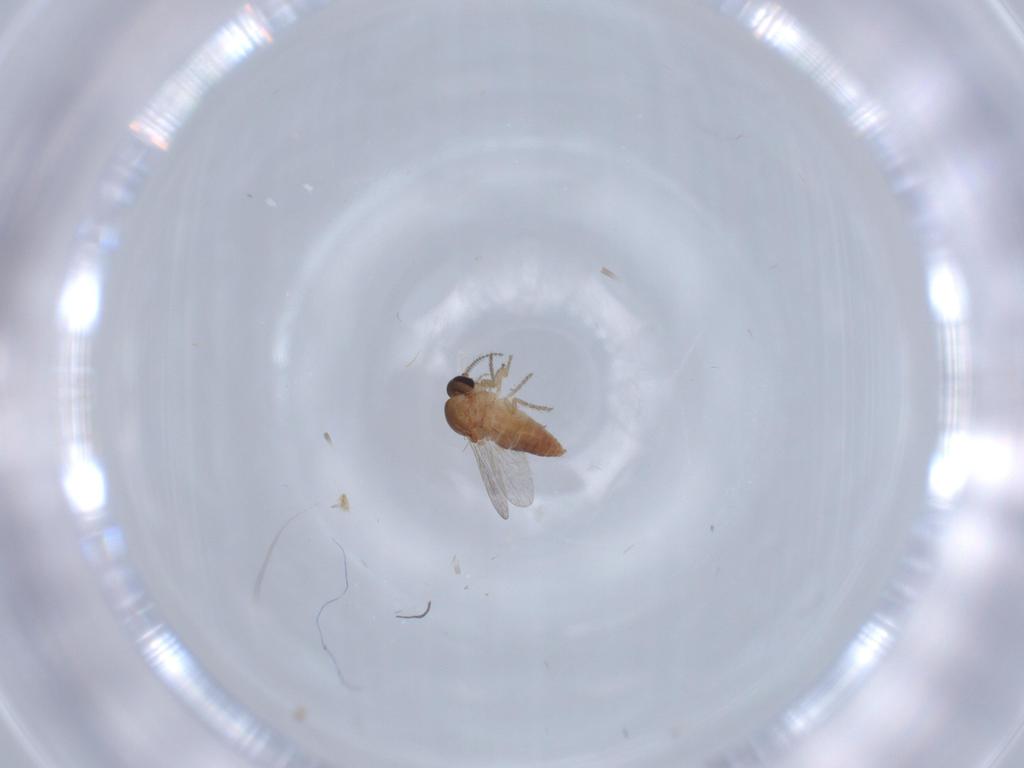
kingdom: Animalia
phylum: Arthropoda
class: Insecta
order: Diptera
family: Ceratopogonidae
